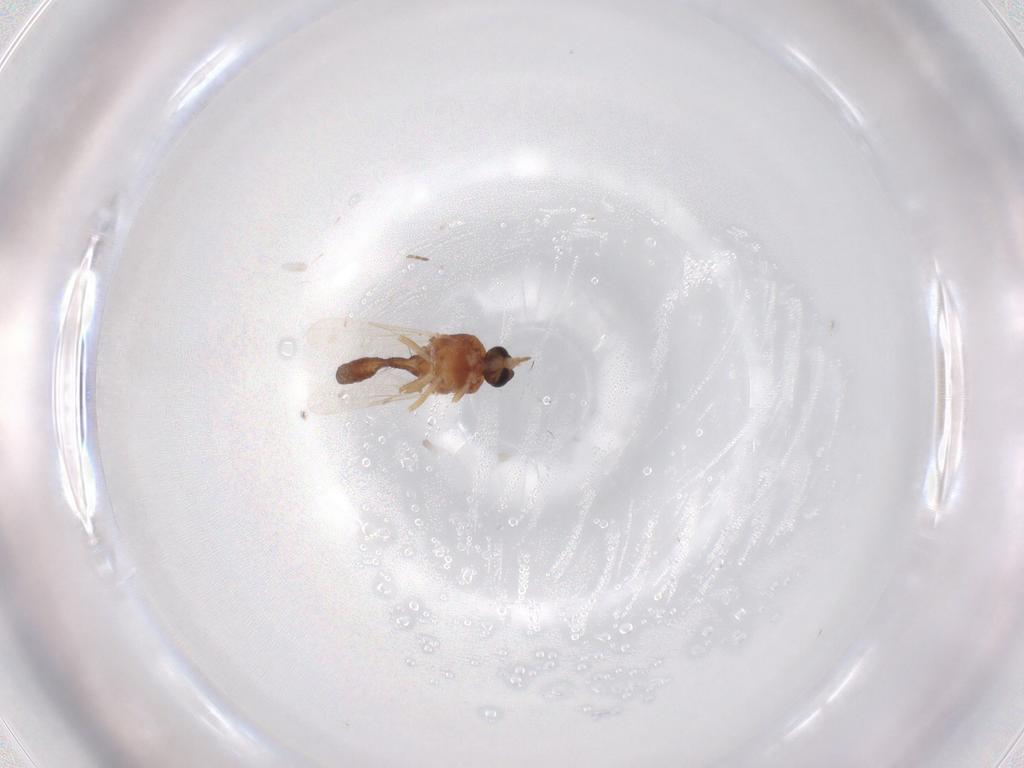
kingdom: Animalia
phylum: Arthropoda
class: Insecta
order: Diptera
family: Ceratopogonidae
